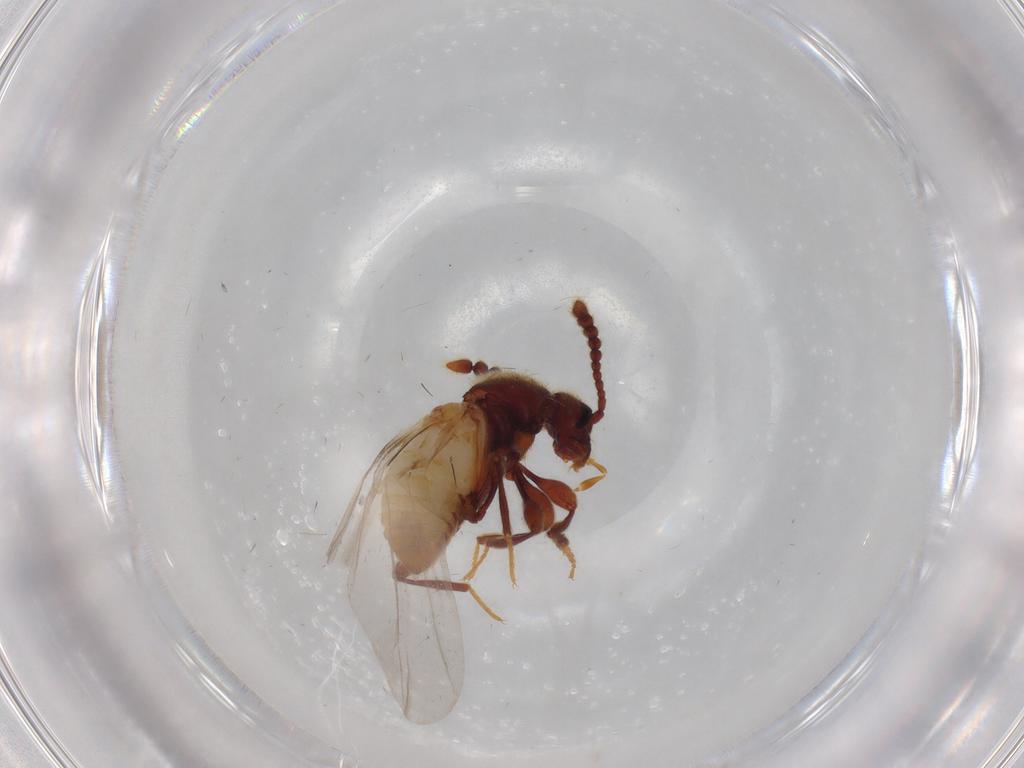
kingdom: Animalia
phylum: Arthropoda
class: Insecta
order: Coleoptera
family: Staphylinidae
